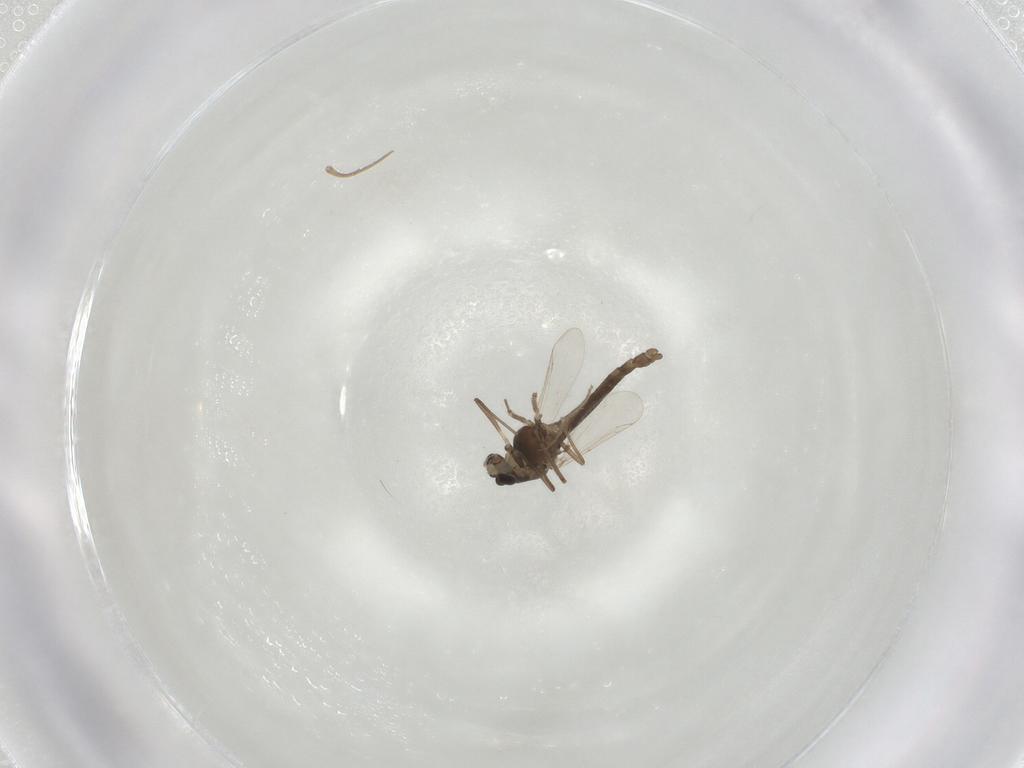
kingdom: Animalia
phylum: Arthropoda
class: Insecta
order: Diptera
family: Chironomidae
